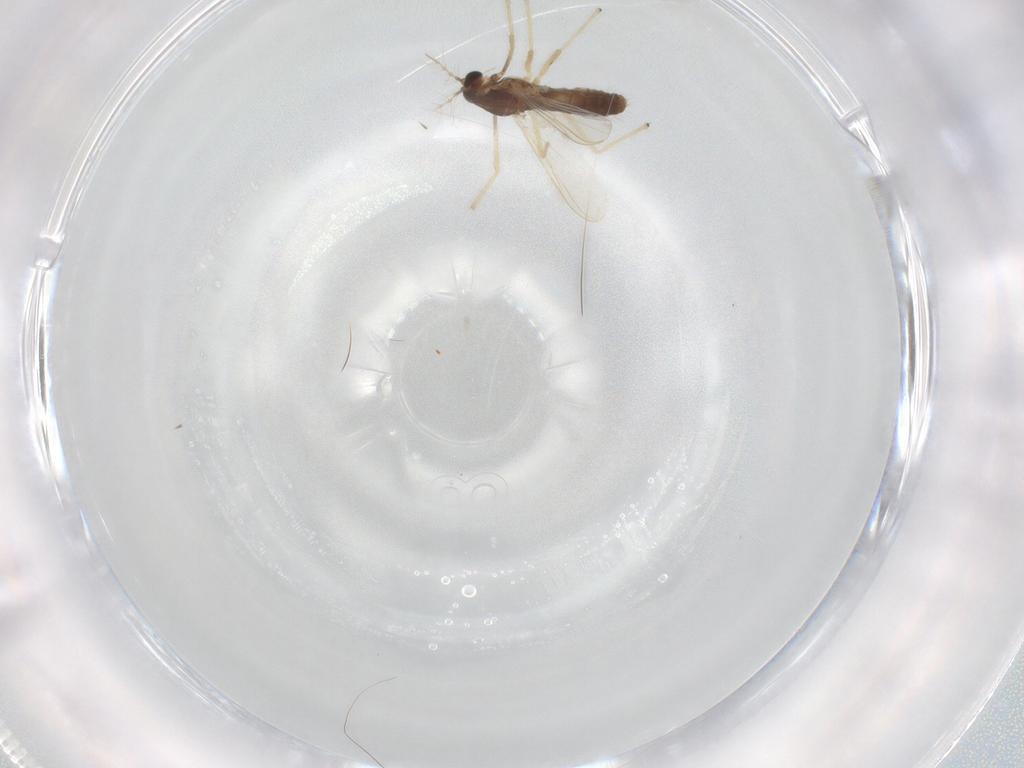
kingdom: Animalia
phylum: Arthropoda
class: Insecta
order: Diptera
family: Chironomidae
